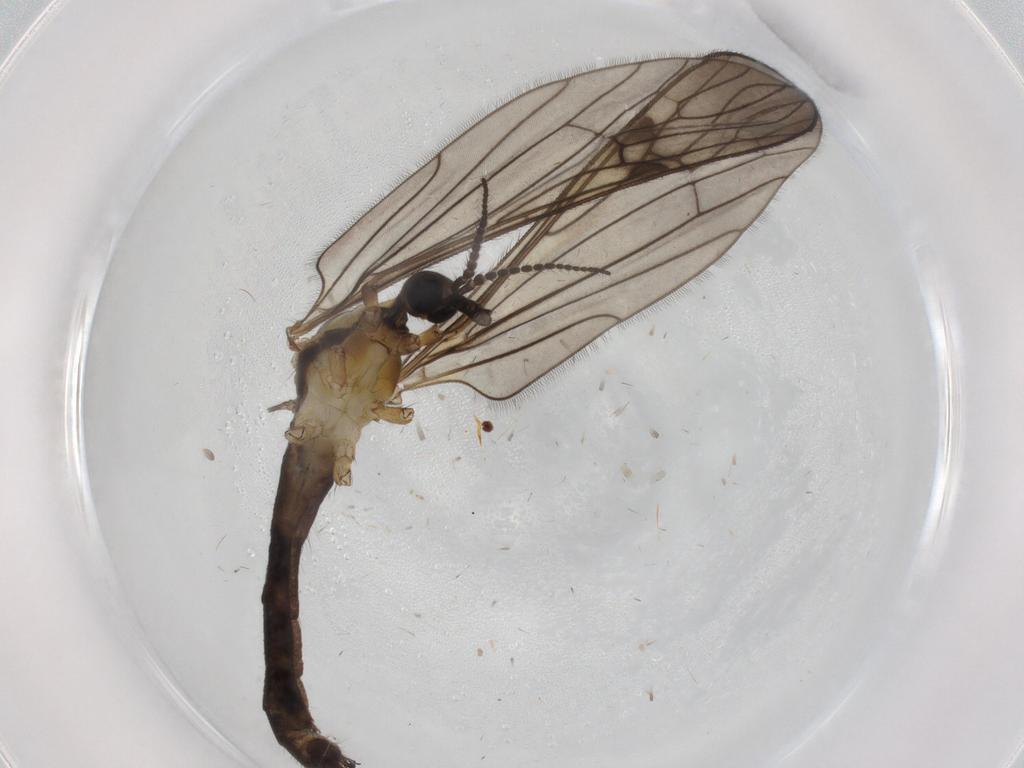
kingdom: Animalia
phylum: Arthropoda
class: Insecta
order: Diptera
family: Limoniidae
